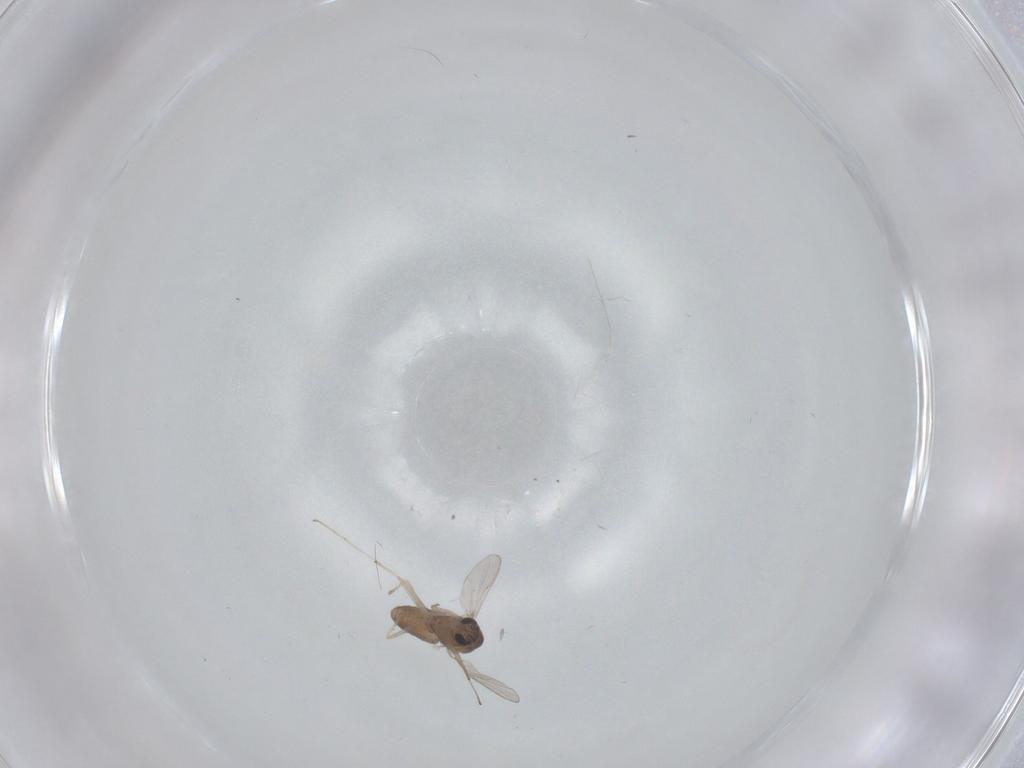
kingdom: Animalia
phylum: Arthropoda
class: Insecta
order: Diptera
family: Chironomidae
